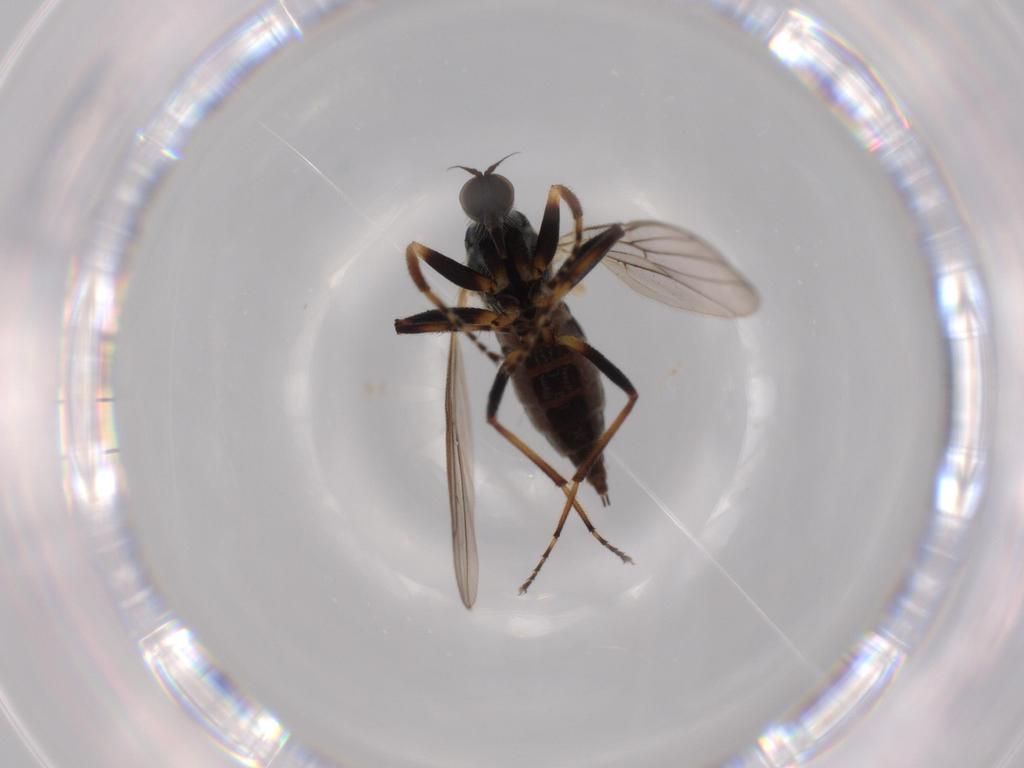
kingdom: Animalia
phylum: Arthropoda
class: Insecta
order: Diptera
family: Hybotidae
